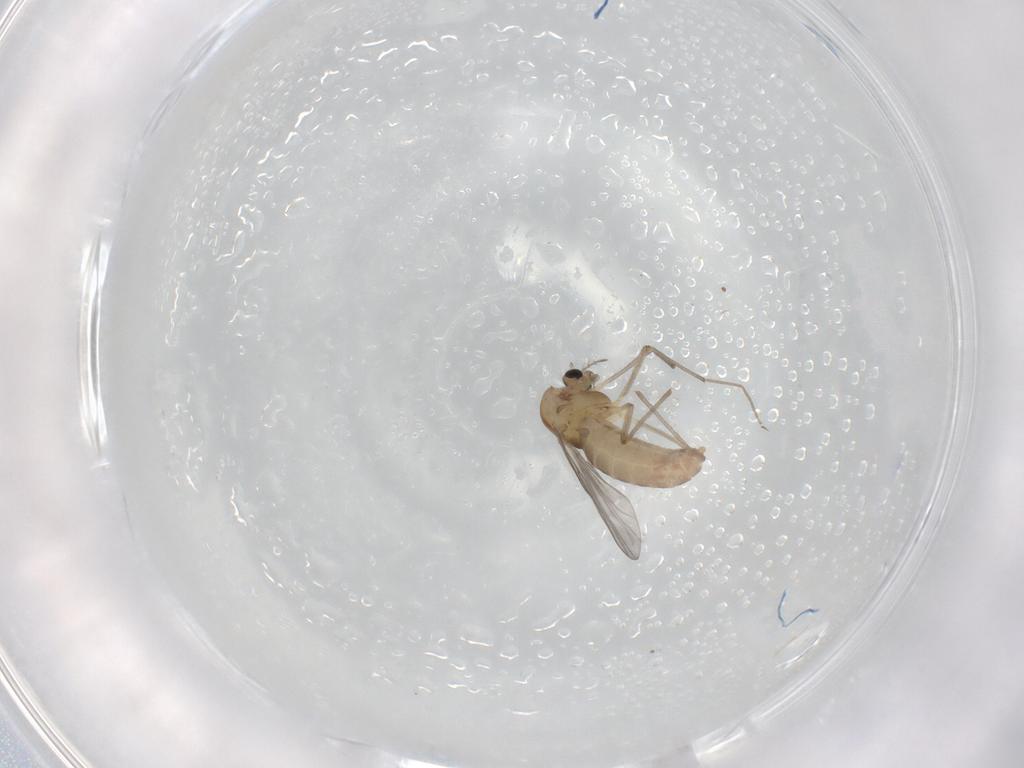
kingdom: Animalia
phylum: Arthropoda
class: Insecta
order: Diptera
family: Chironomidae
